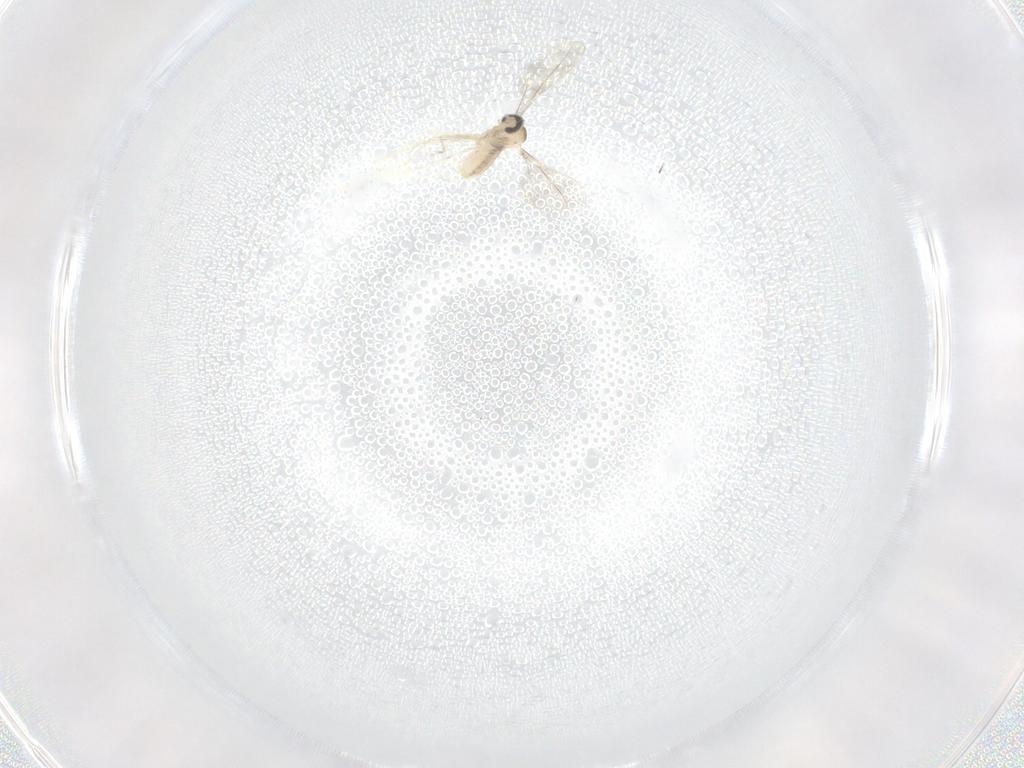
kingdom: Animalia
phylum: Arthropoda
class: Insecta
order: Diptera
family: Cecidomyiidae
